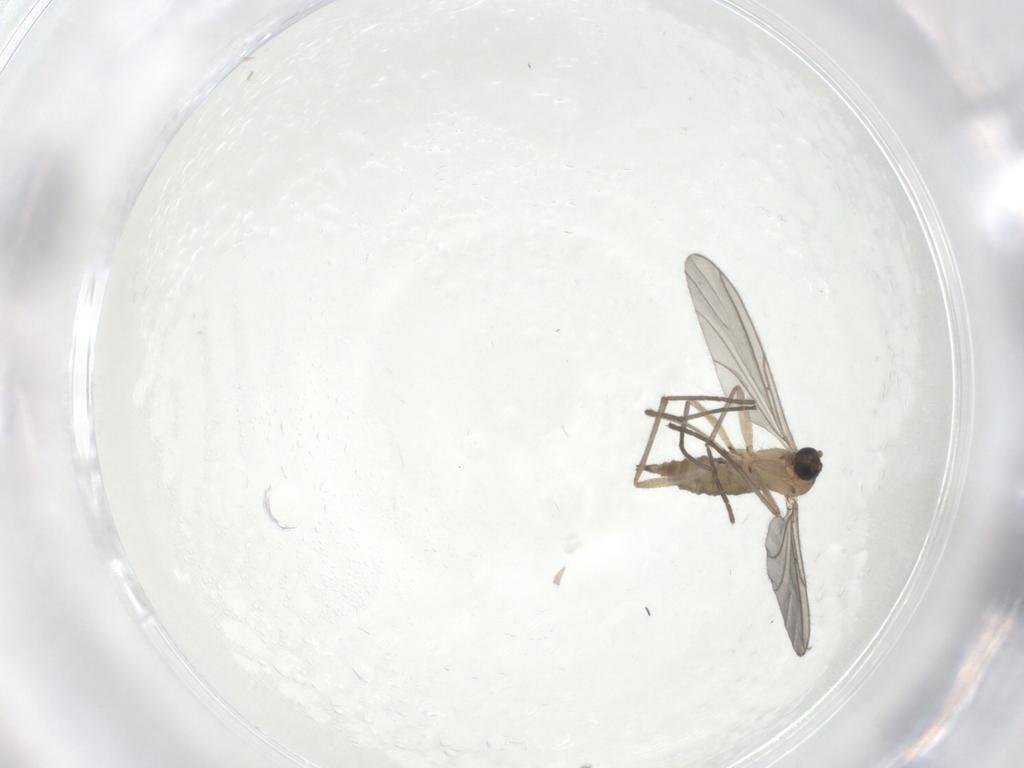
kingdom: Animalia
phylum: Arthropoda
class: Insecta
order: Diptera
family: Sciaridae
